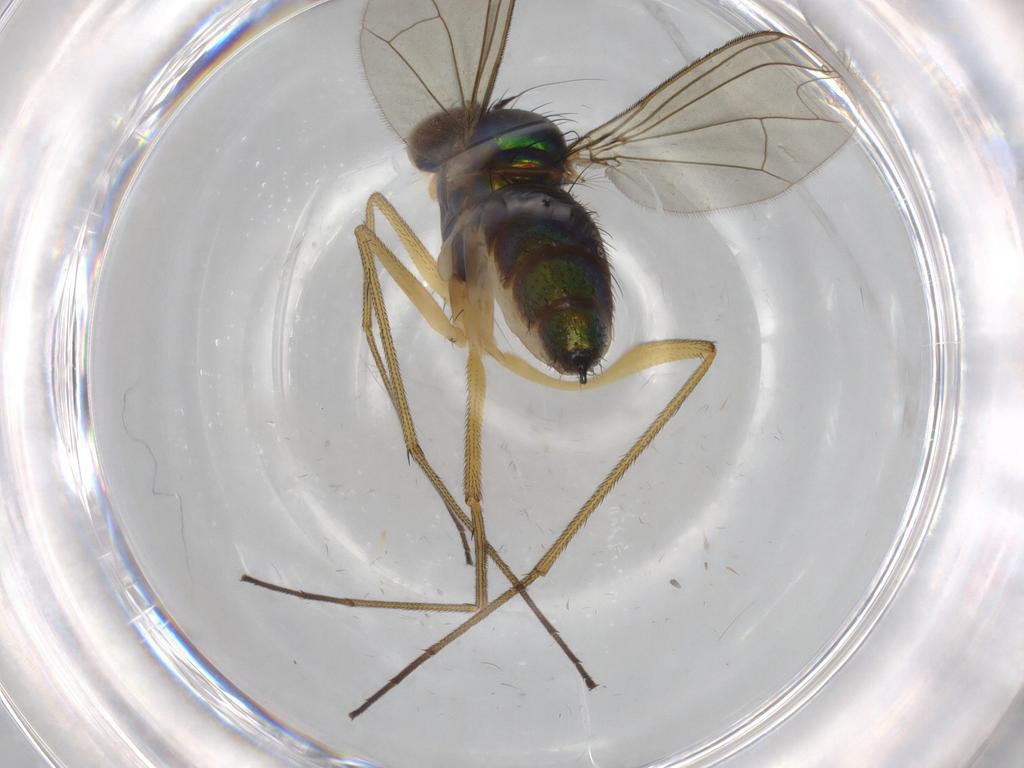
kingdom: Animalia
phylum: Arthropoda
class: Insecta
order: Diptera
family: Dolichopodidae
